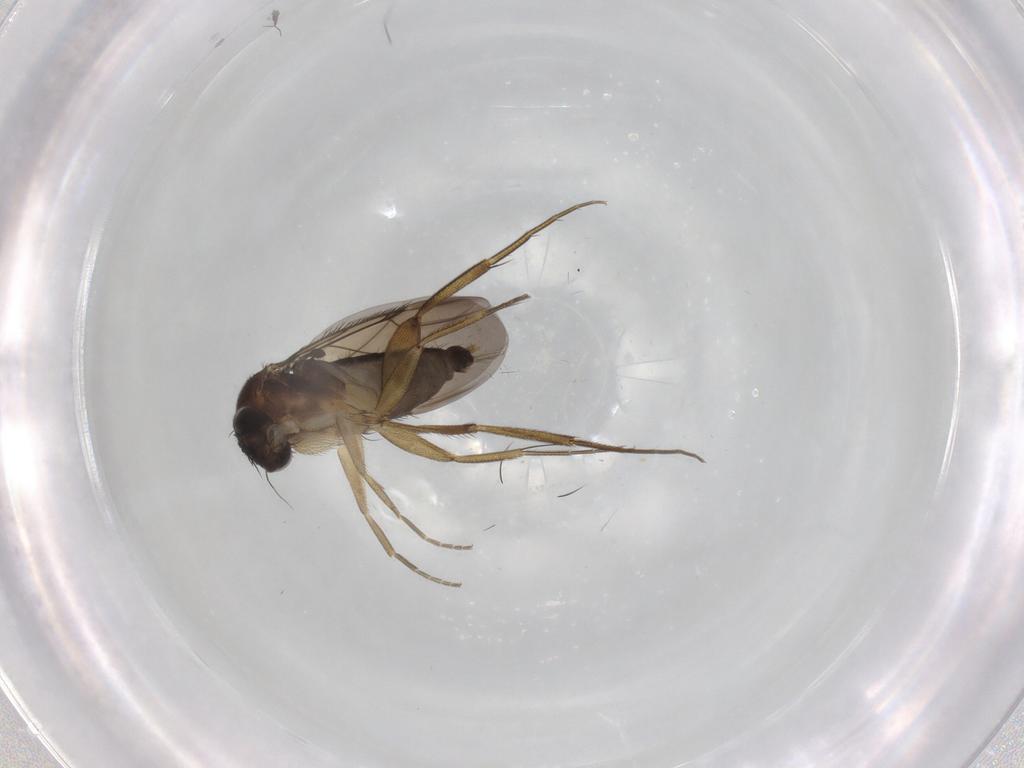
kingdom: Animalia
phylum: Arthropoda
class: Insecta
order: Diptera
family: Phoridae
